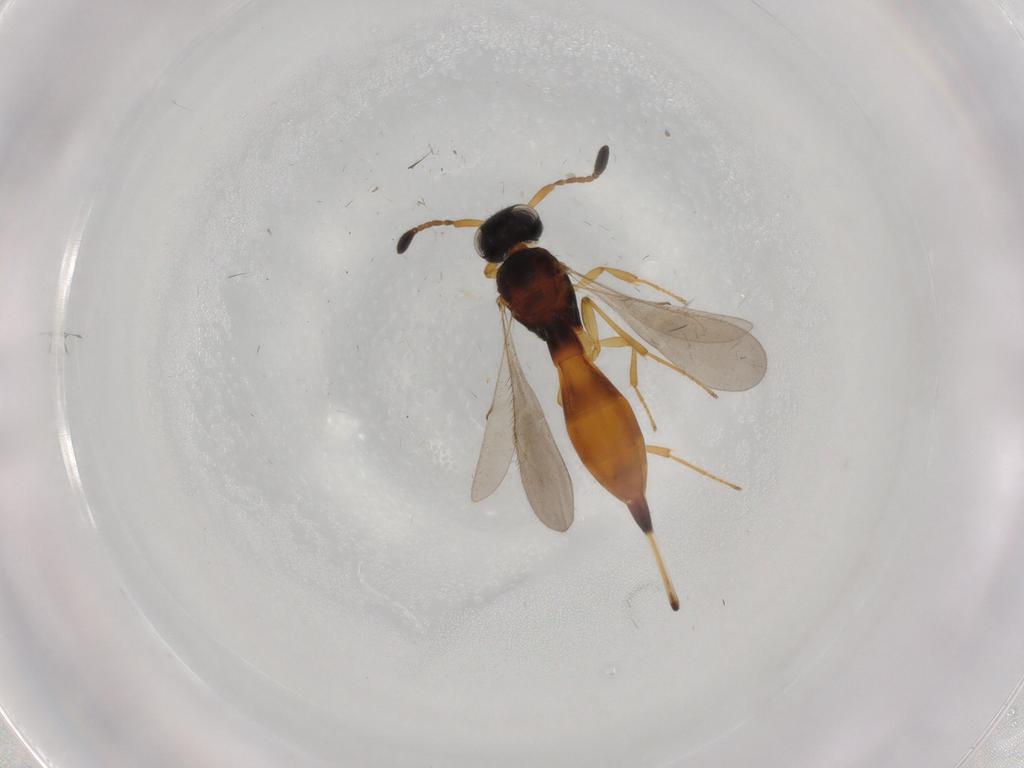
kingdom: Animalia
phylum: Arthropoda
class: Insecta
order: Hymenoptera
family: Scelionidae
